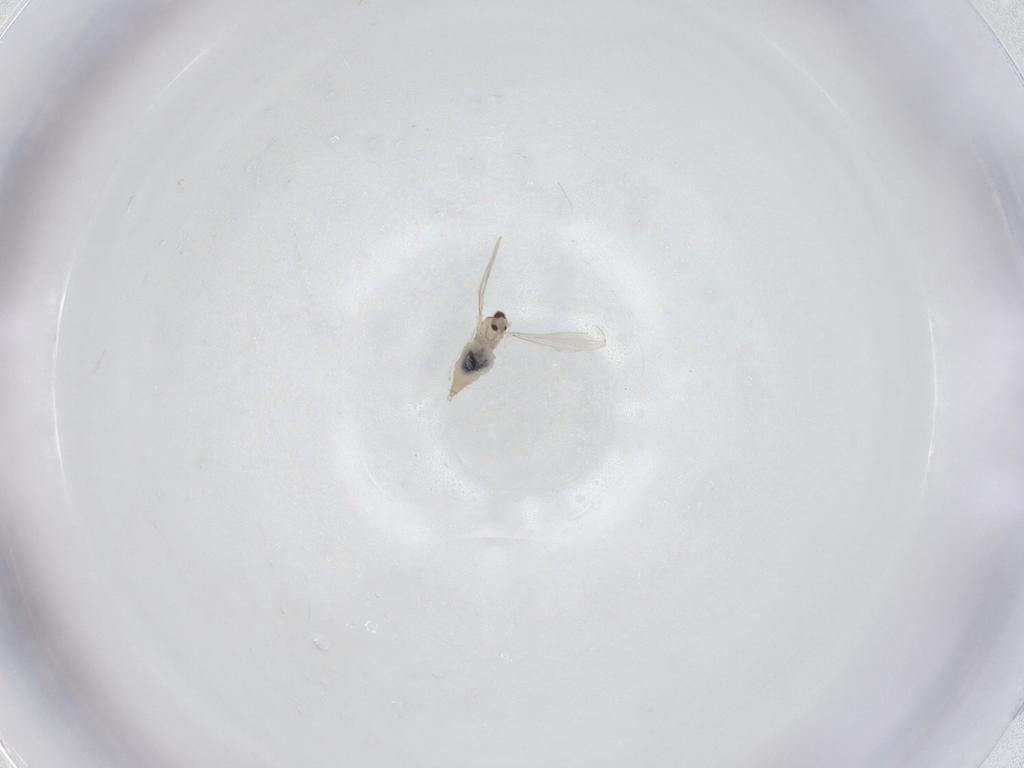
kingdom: Animalia
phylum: Arthropoda
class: Insecta
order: Diptera
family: Cecidomyiidae
